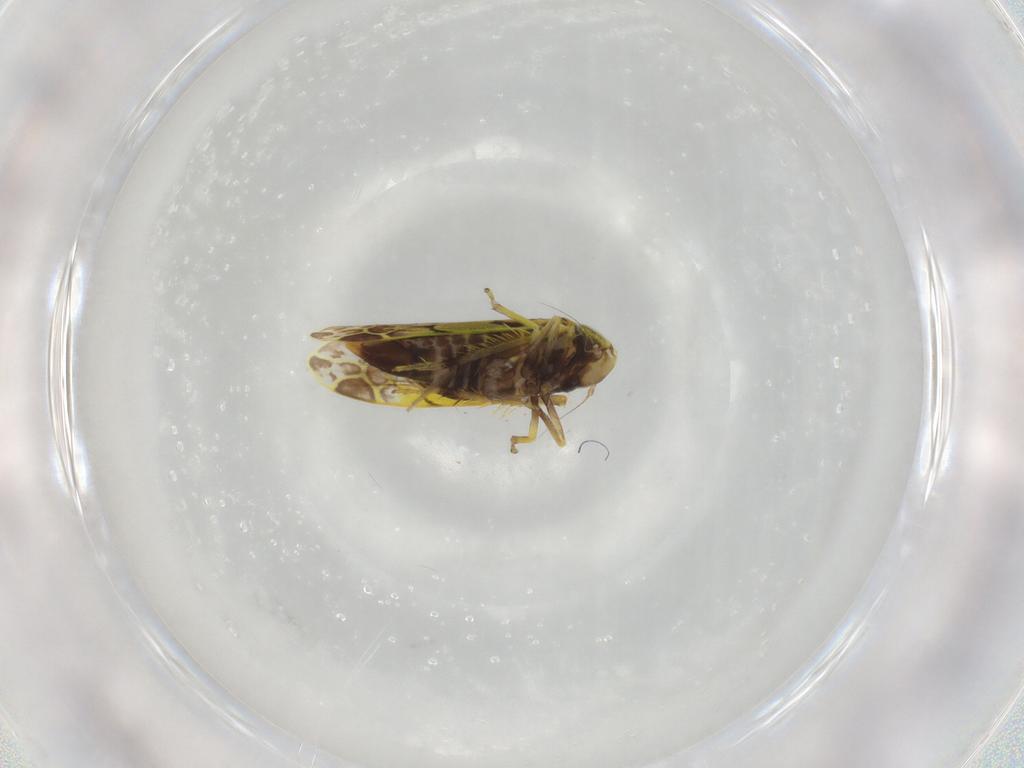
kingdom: Animalia
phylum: Arthropoda
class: Insecta
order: Hemiptera
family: Cicadellidae
